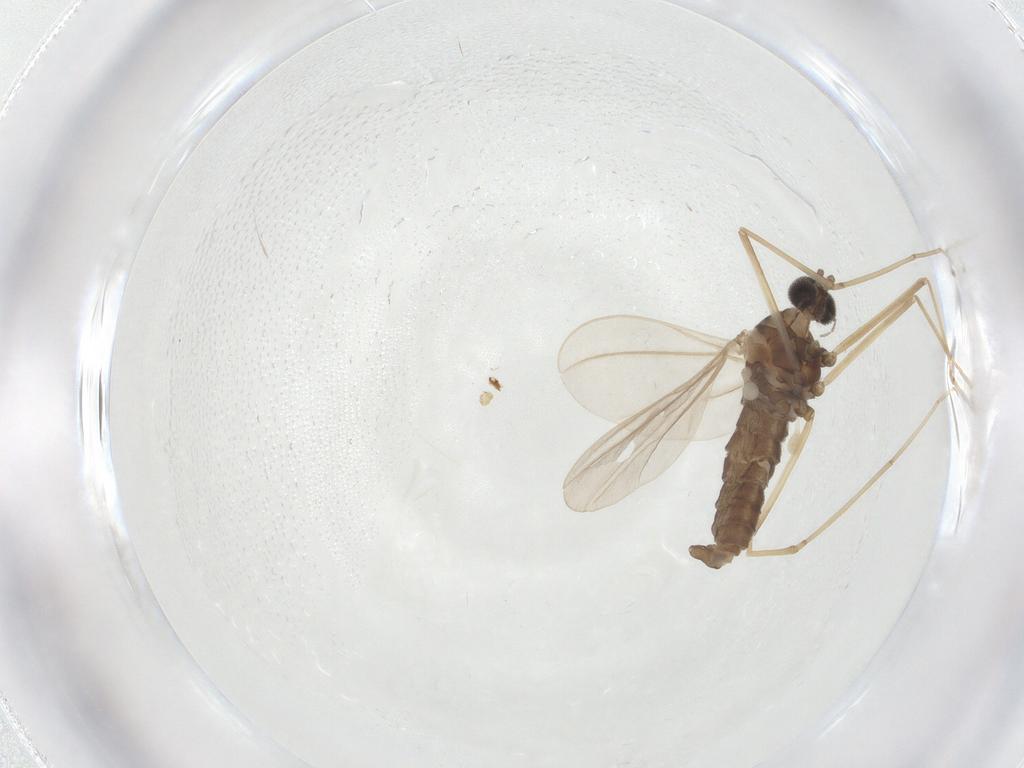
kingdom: Animalia
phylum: Arthropoda
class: Insecta
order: Diptera
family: Cecidomyiidae
